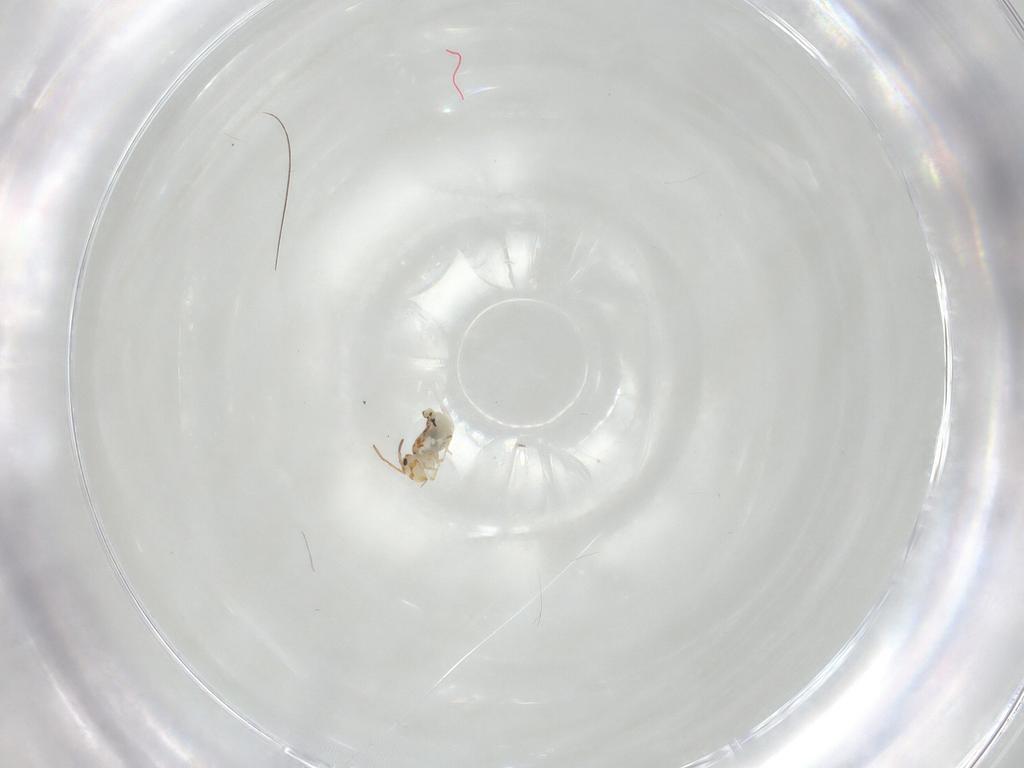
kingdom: Animalia
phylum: Arthropoda
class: Collembola
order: Symphypleona
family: Bourletiellidae
